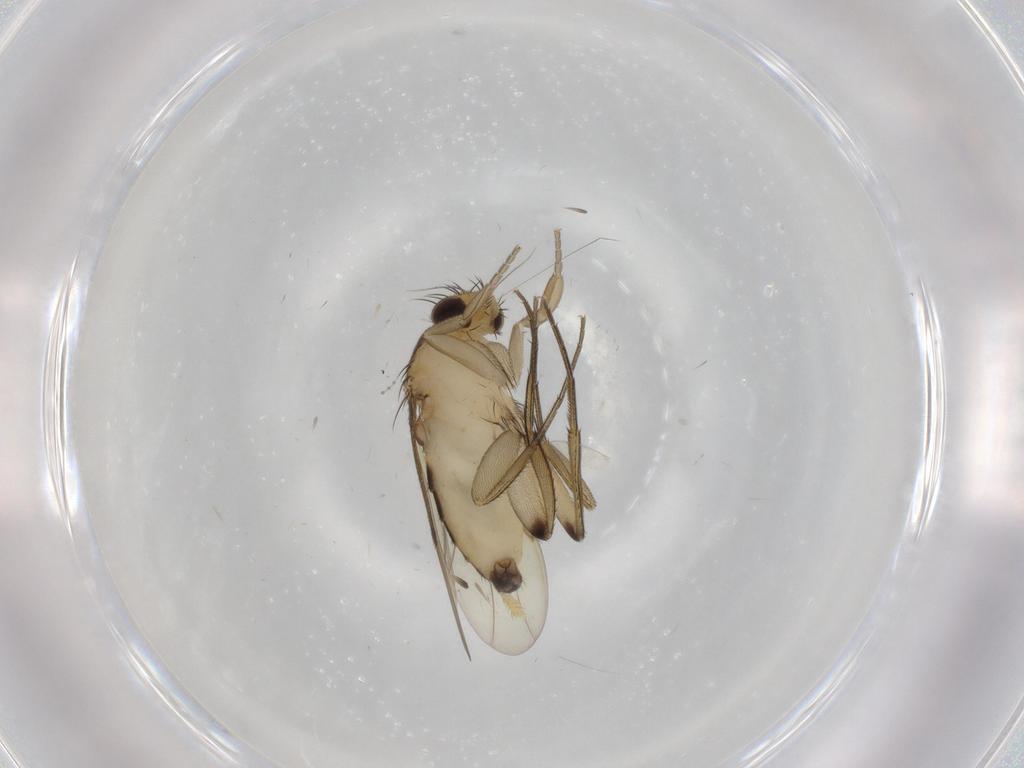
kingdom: Animalia
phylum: Arthropoda
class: Insecta
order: Diptera
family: Phoridae
